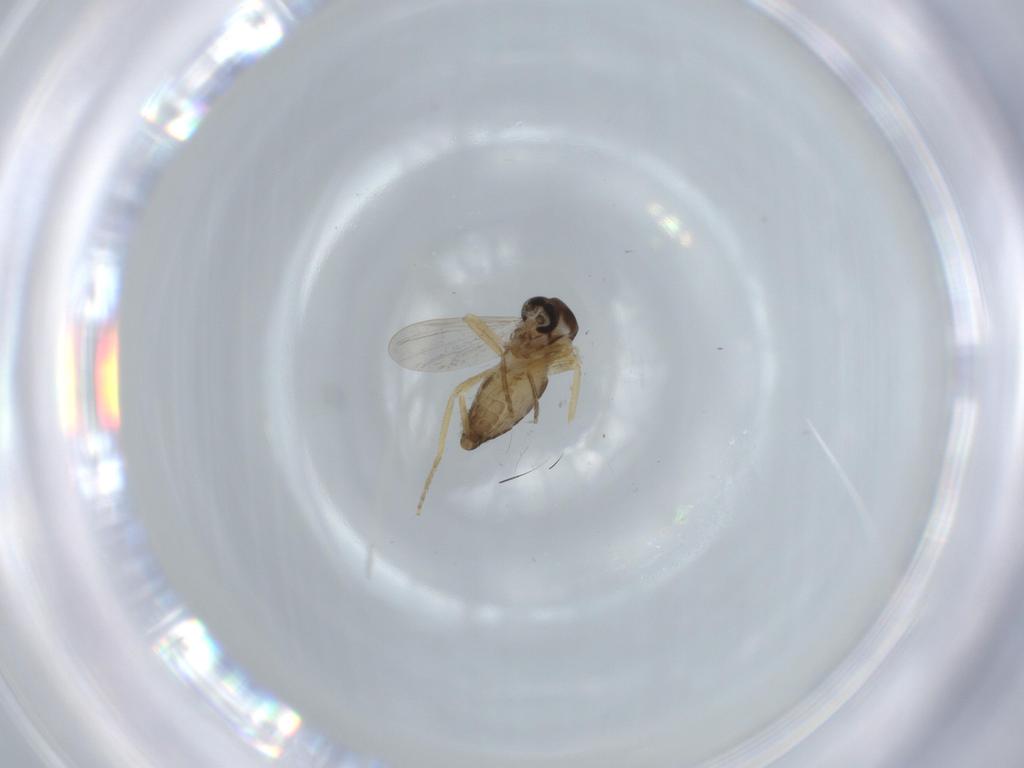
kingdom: Animalia
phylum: Arthropoda
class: Insecta
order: Diptera
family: Ceratopogonidae
